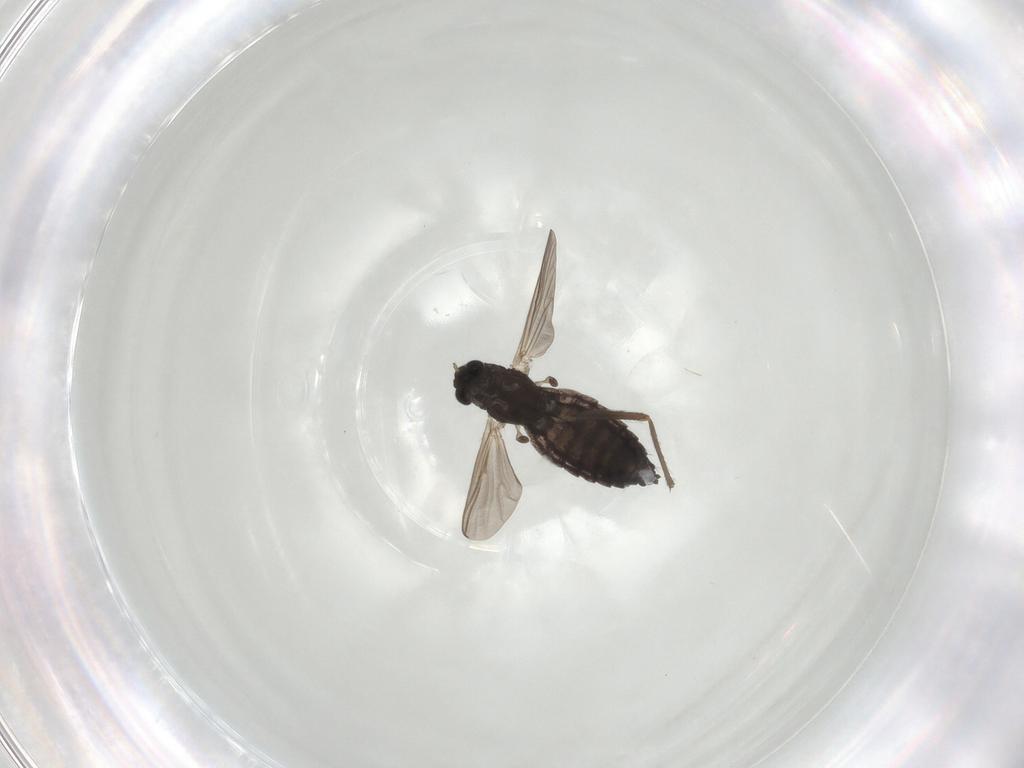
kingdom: Animalia
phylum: Arthropoda
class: Insecta
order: Diptera
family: Chironomidae
